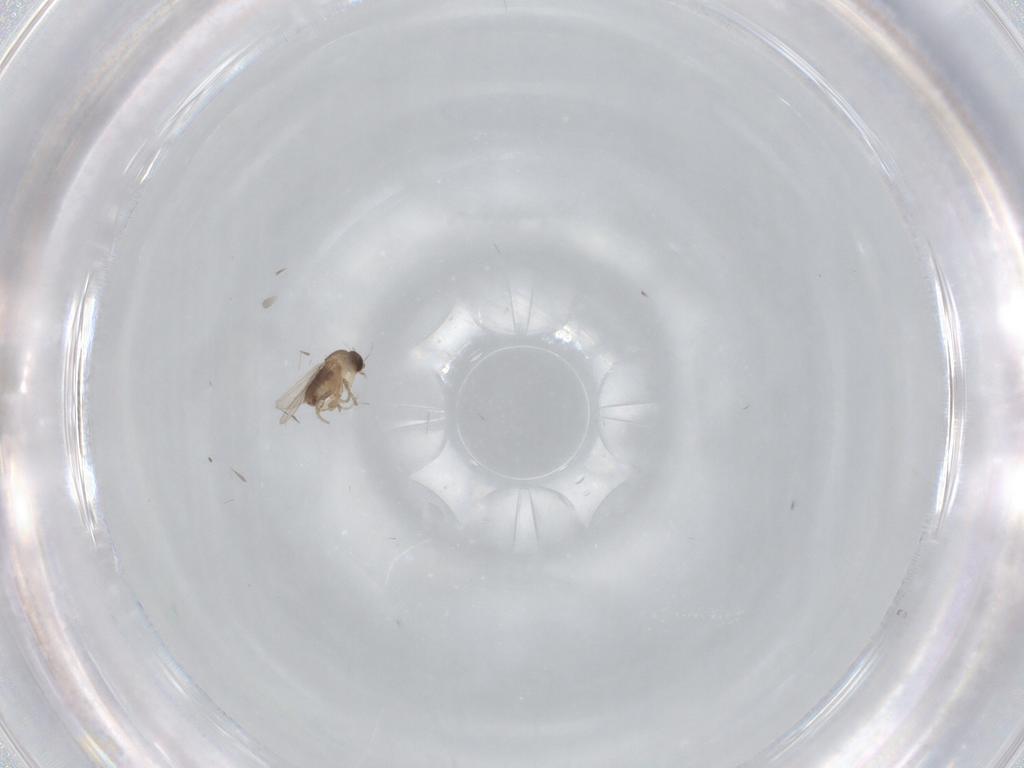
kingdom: Animalia
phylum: Arthropoda
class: Insecta
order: Diptera
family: Phoridae
